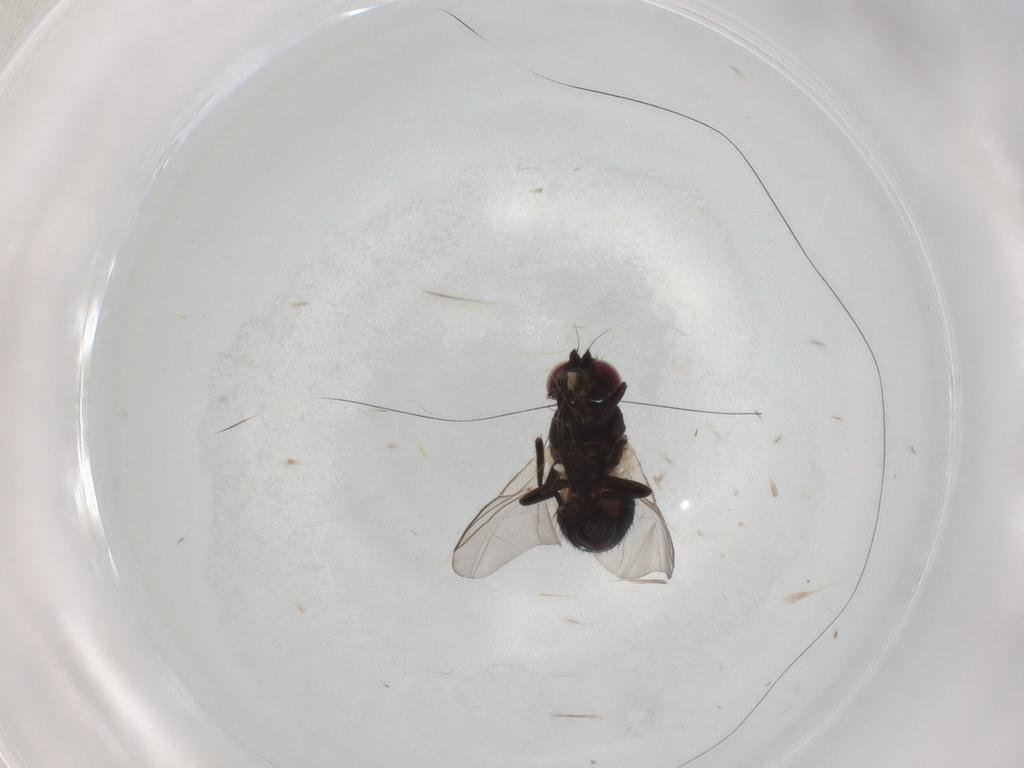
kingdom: Animalia
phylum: Arthropoda
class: Insecta
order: Diptera
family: Agromyzidae
